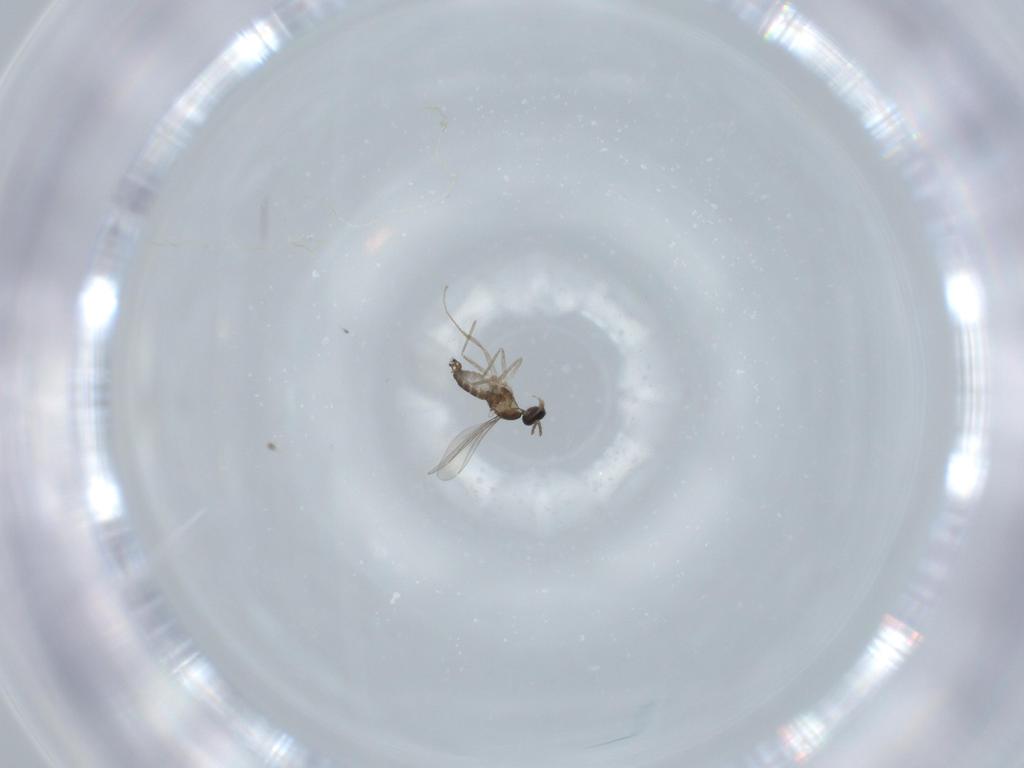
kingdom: Animalia
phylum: Arthropoda
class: Insecta
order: Diptera
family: Cecidomyiidae
